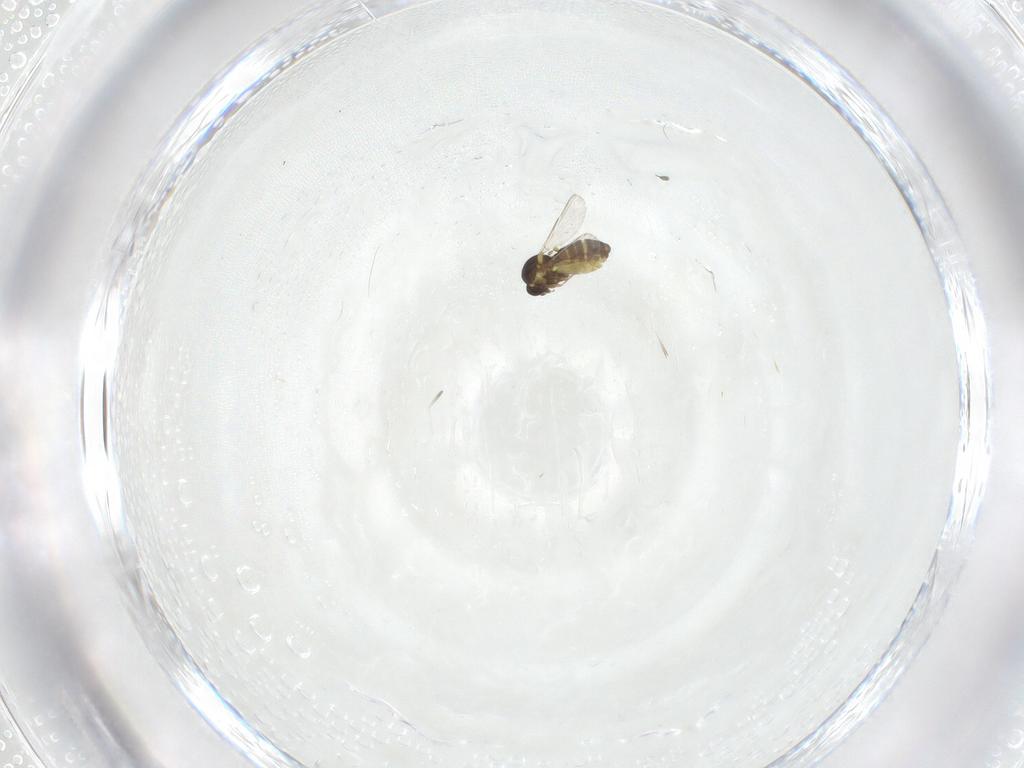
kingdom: Animalia
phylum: Arthropoda
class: Insecta
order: Diptera
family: Ceratopogonidae
